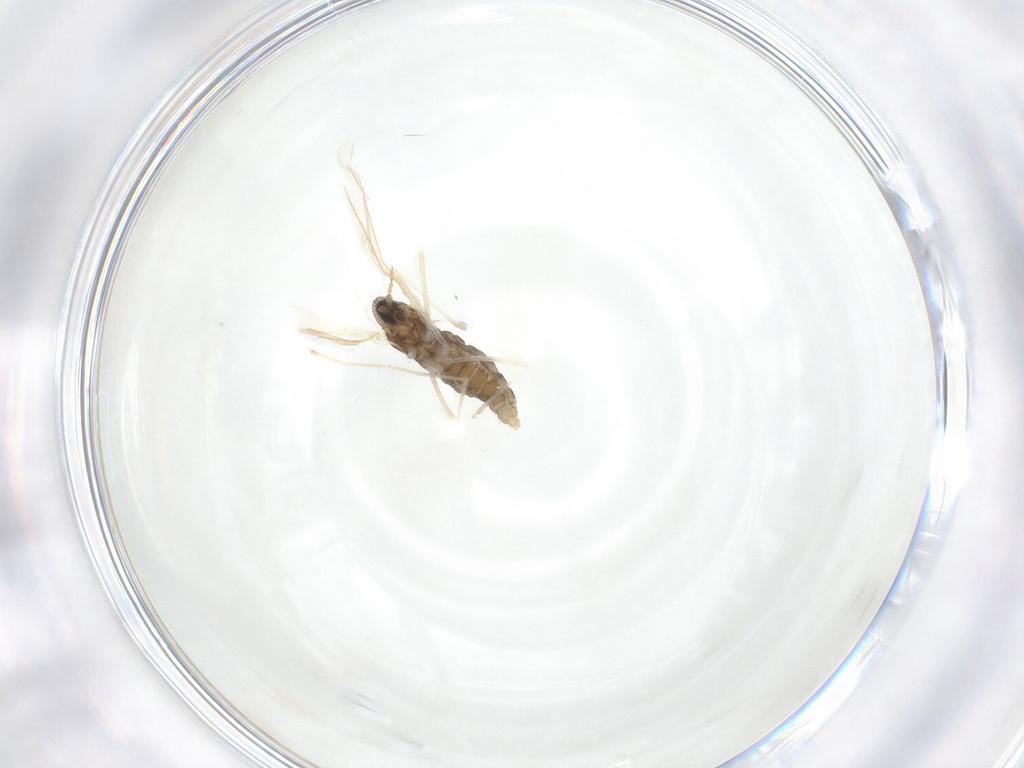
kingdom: Animalia
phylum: Arthropoda
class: Insecta
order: Diptera
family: Cecidomyiidae
